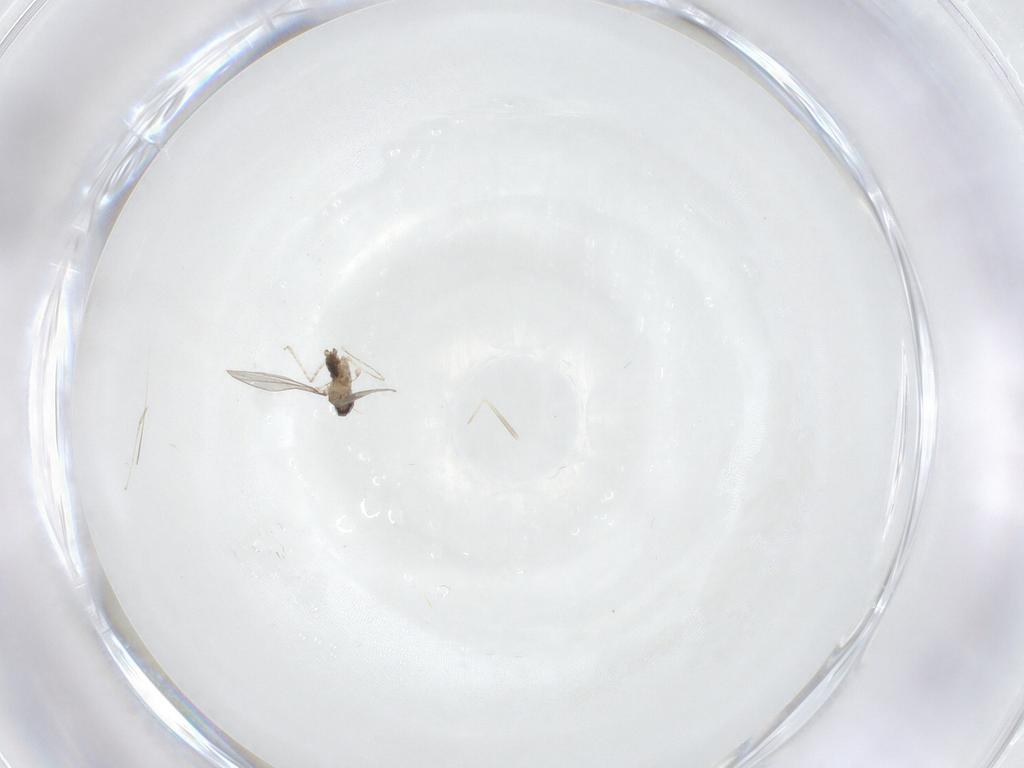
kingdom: Animalia
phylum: Arthropoda
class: Insecta
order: Diptera
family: Cecidomyiidae
